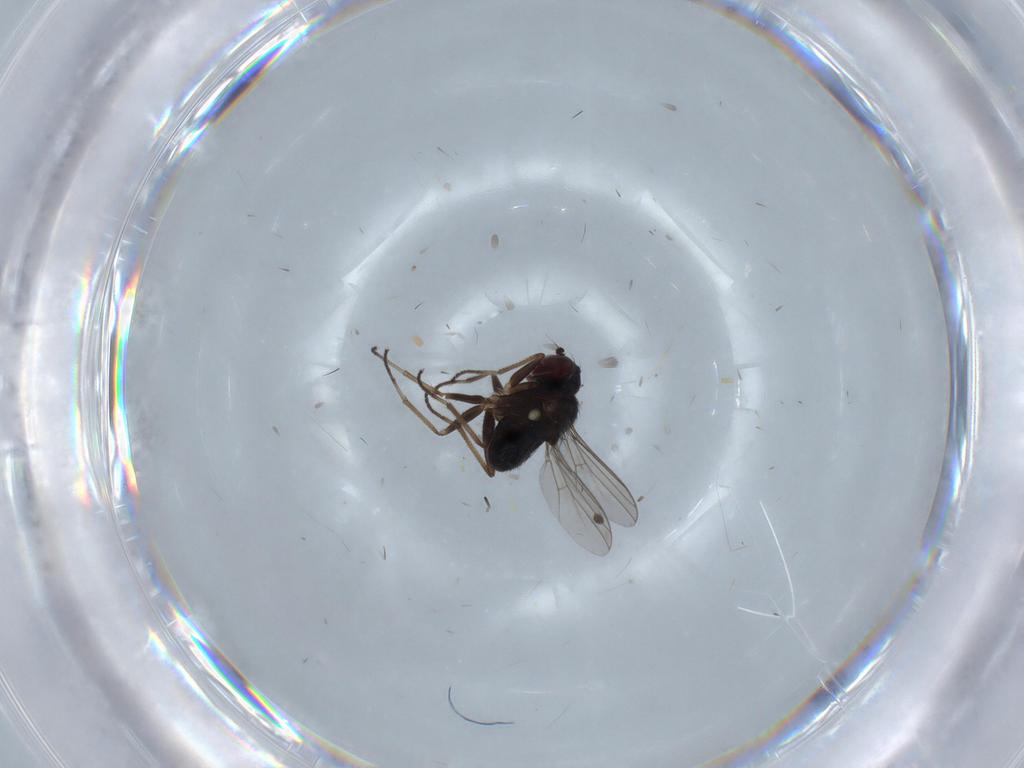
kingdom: Animalia
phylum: Arthropoda
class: Insecta
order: Diptera
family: Dolichopodidae
